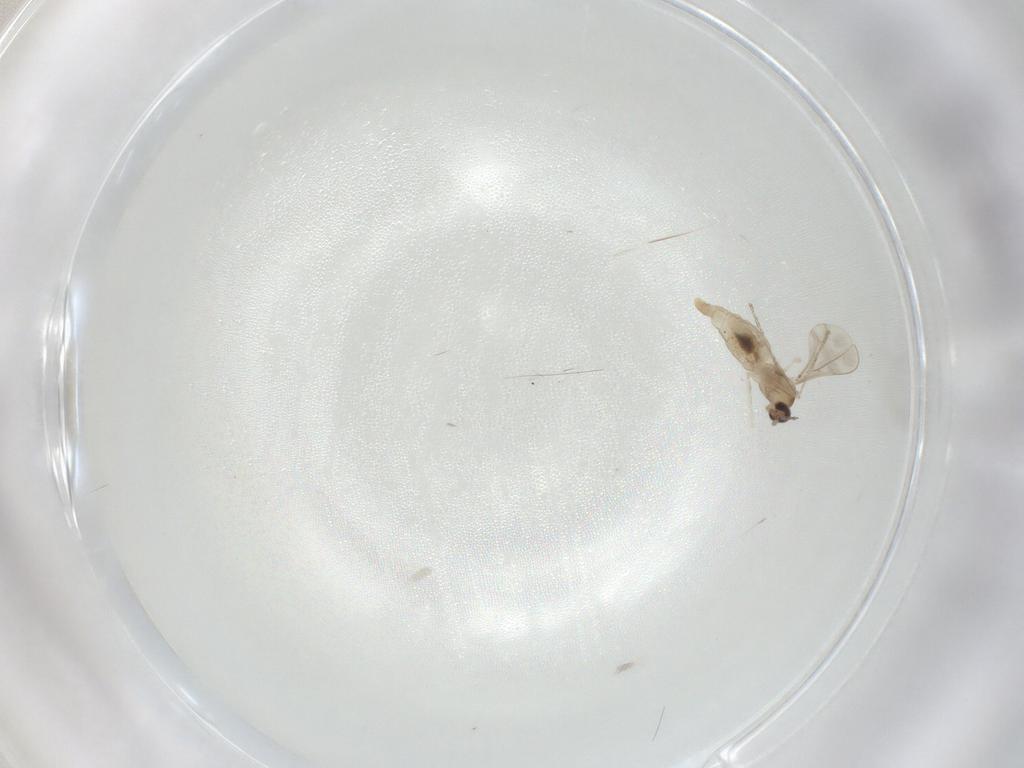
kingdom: Animalia
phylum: Arthropoda
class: Insecta
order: Diptera
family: Cecidomyiidae
